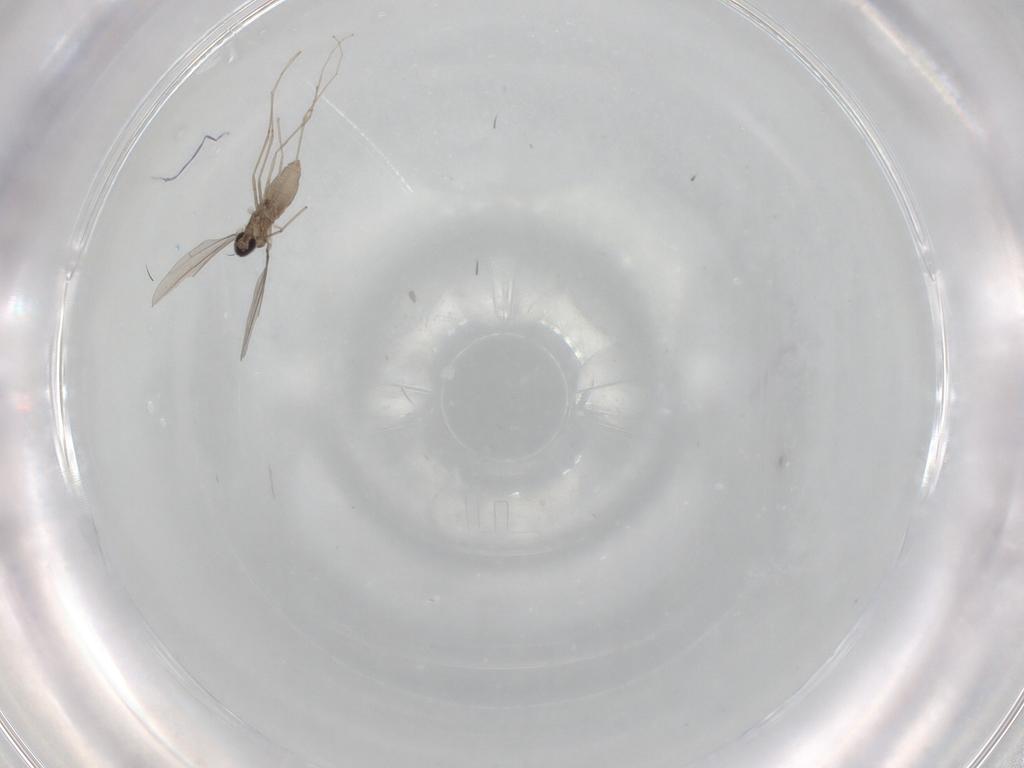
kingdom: Animalia
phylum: Arthropoda
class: Insecta
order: Diptera
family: Cecidomyiidae
